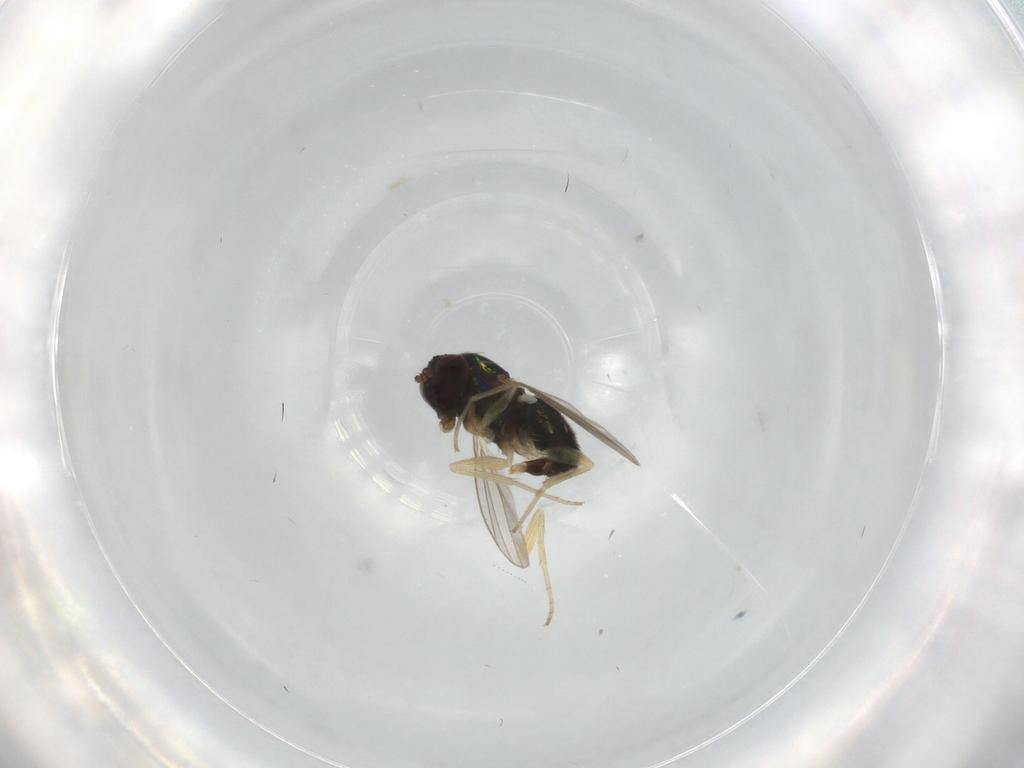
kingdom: Animalia
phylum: Arthropoda
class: Insecta
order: Diptera
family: Dolichopodidae
